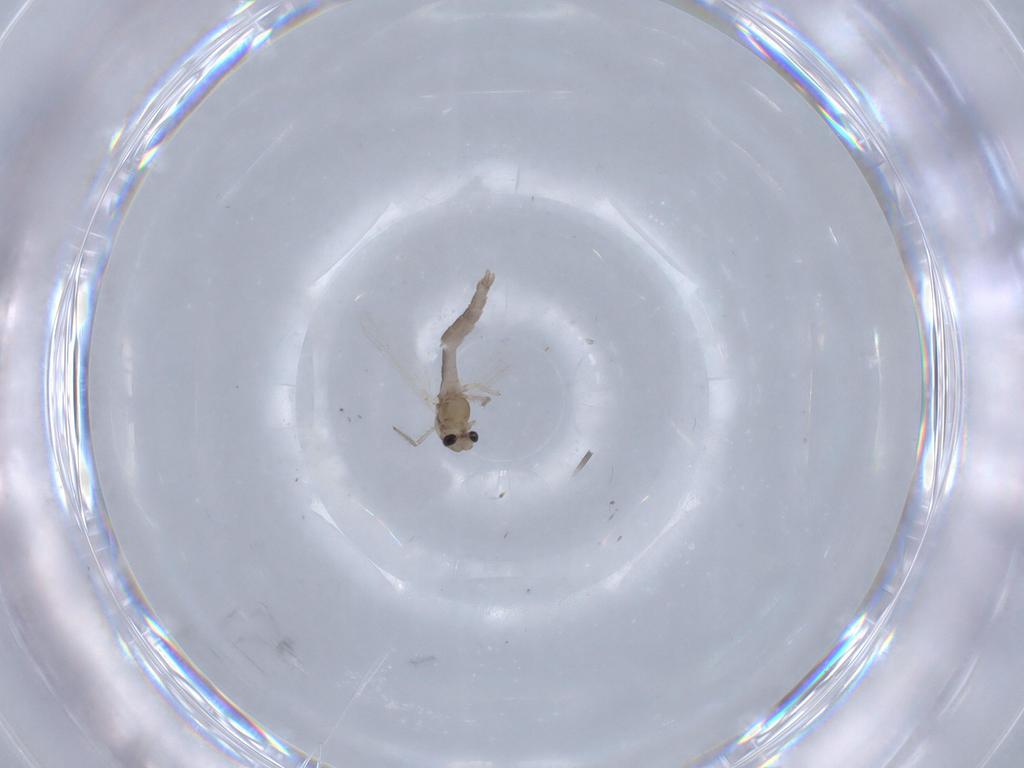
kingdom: Animalia
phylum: Arthropoda
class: Insecta
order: Diptera
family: Chironomidae
